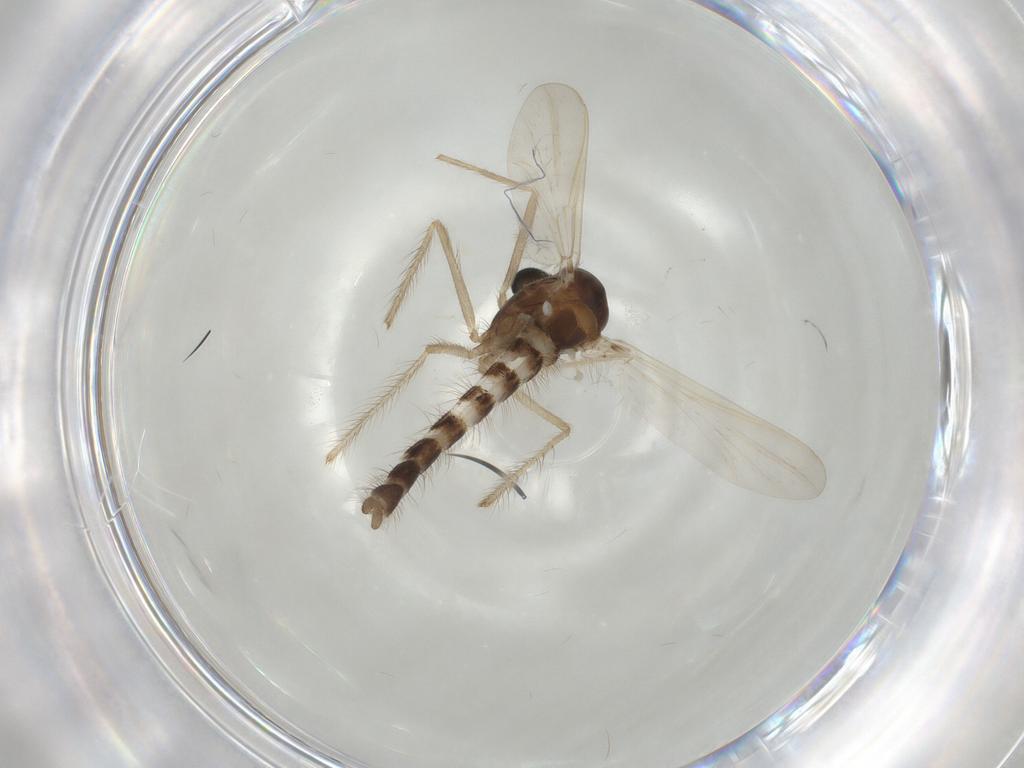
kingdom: Animalia
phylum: Arthropoda
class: Insecta
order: Diptera
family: Chironomidae
